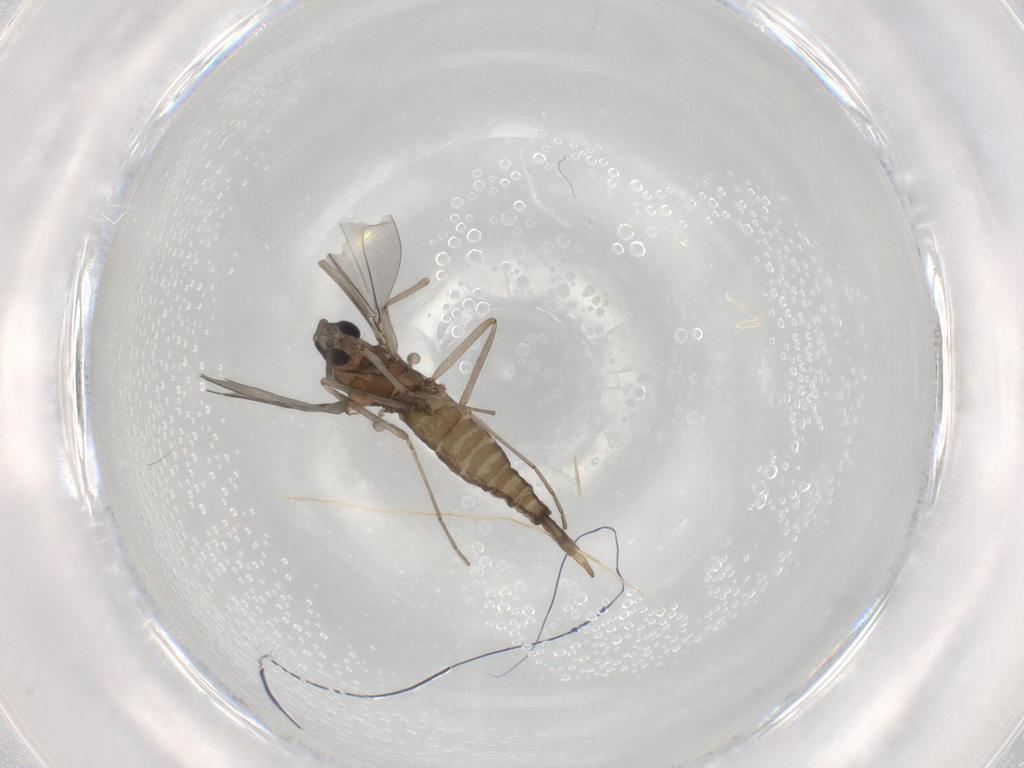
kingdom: Animalia
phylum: Arthropoda
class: Insecta
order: Diptera
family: Cecidomyiidae
